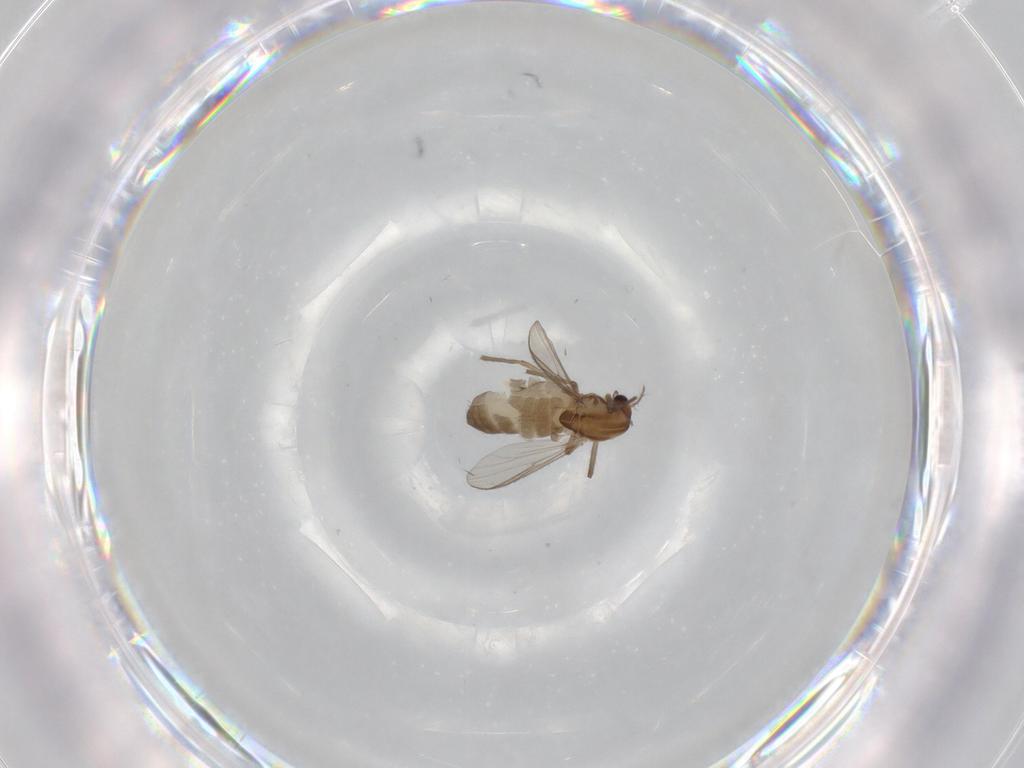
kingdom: Animalia
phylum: Arthropoda
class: Insecta
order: Diptera
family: Chironomidae
